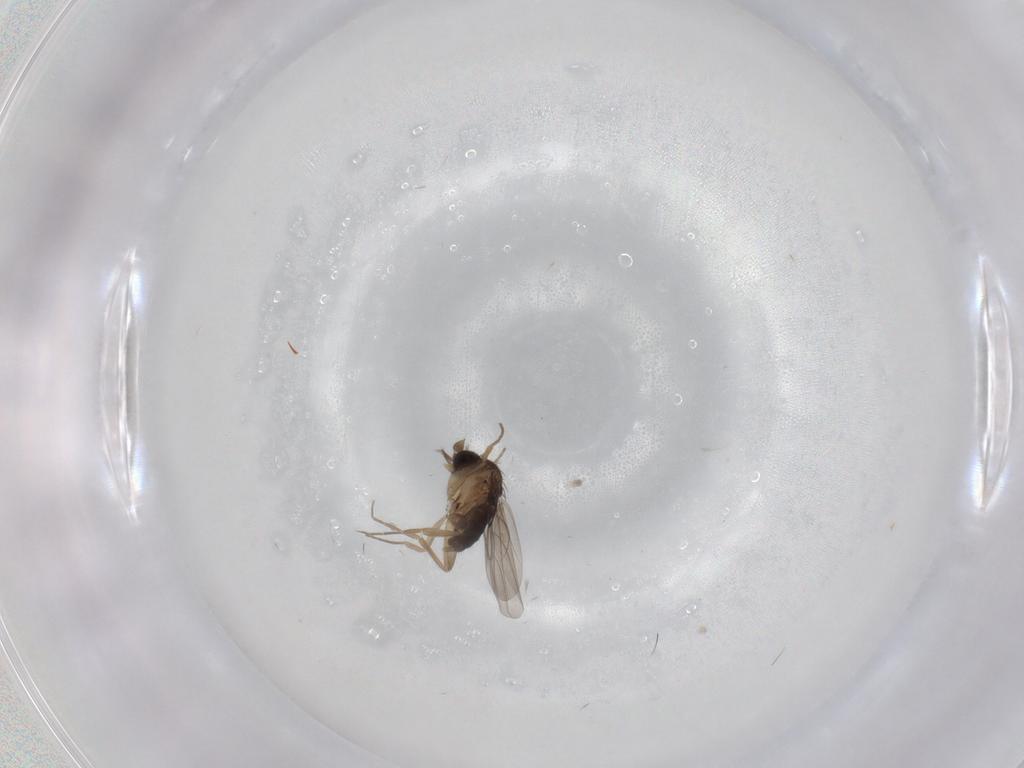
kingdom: Animalia
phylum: Arthropoda
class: Insecta
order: Diptera
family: Phoridae
